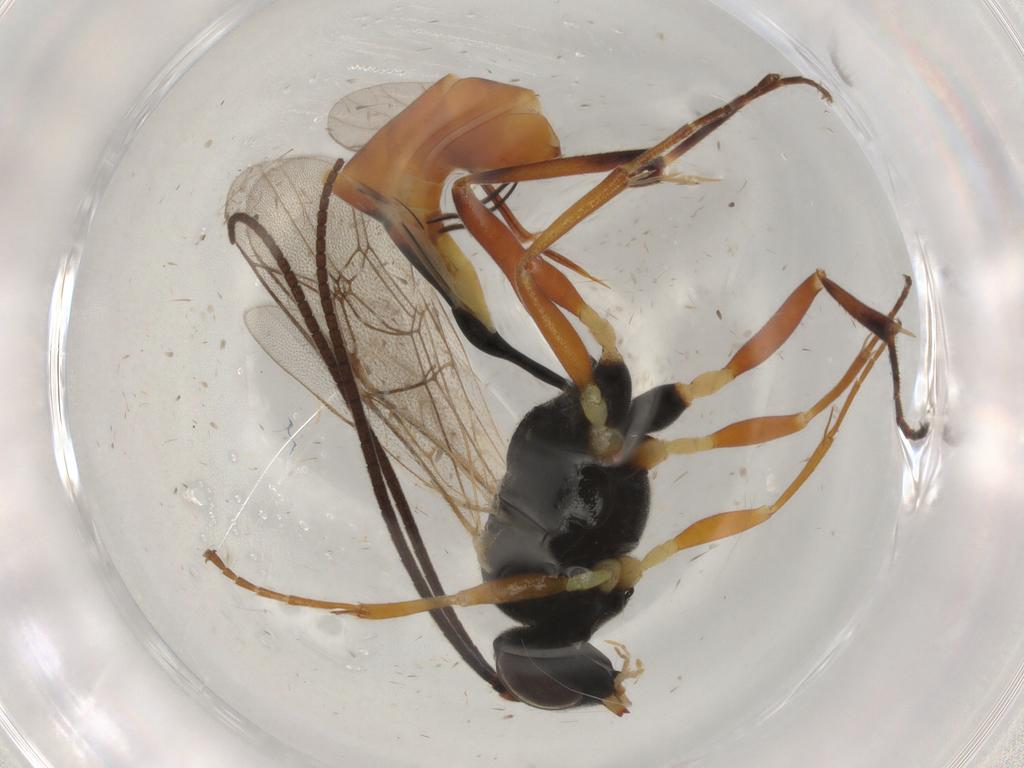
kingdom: Animalia
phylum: Arthropoda
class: Insecta
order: Hymenoptera
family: Ichneumonidae
